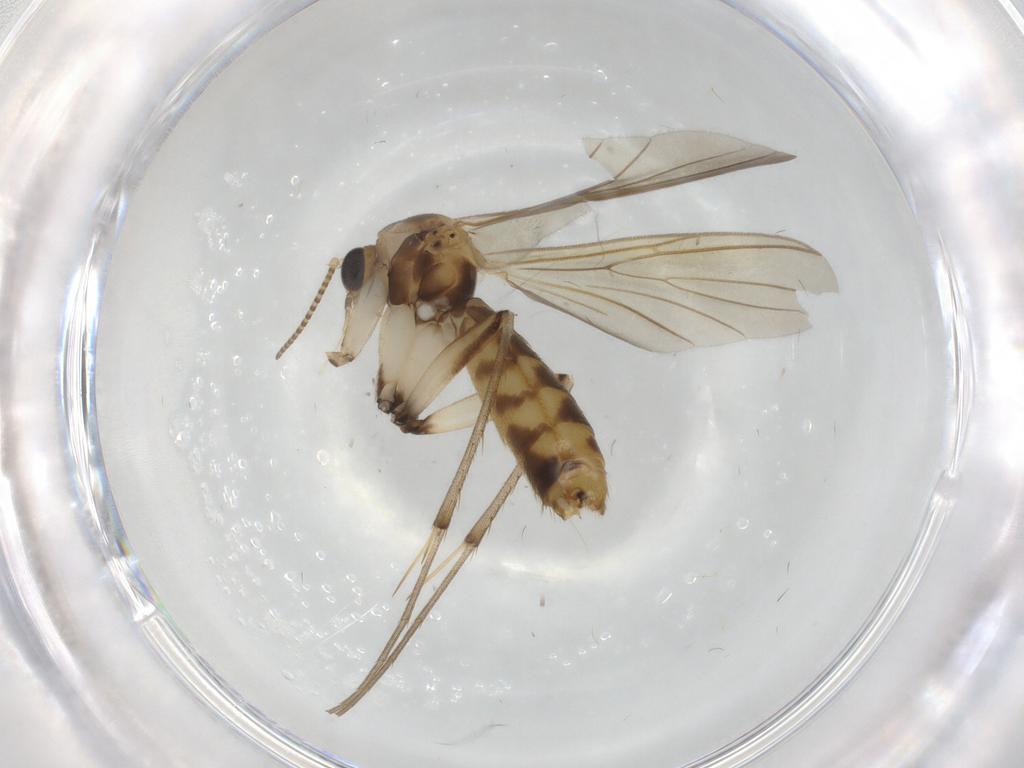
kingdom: Animalia
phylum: Arthropoda
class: Insecta
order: Diptera
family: Mycetophilidae
